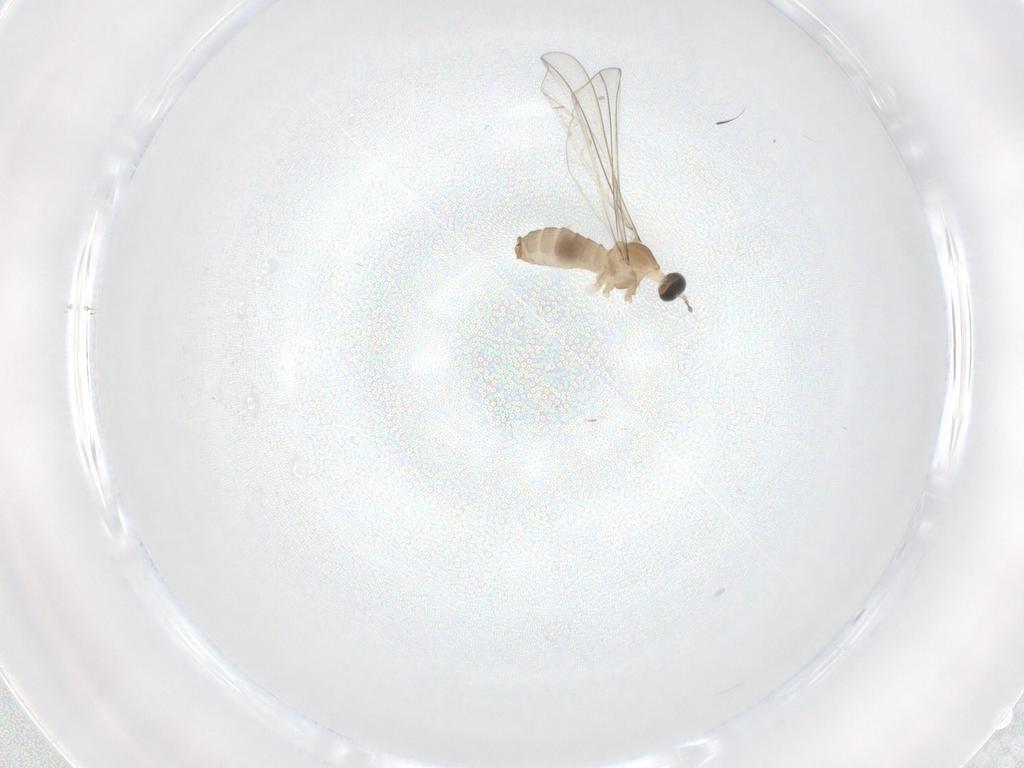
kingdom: Animalia
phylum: Arthropoda
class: Insecta
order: Diptera
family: Cecidomyiidae
